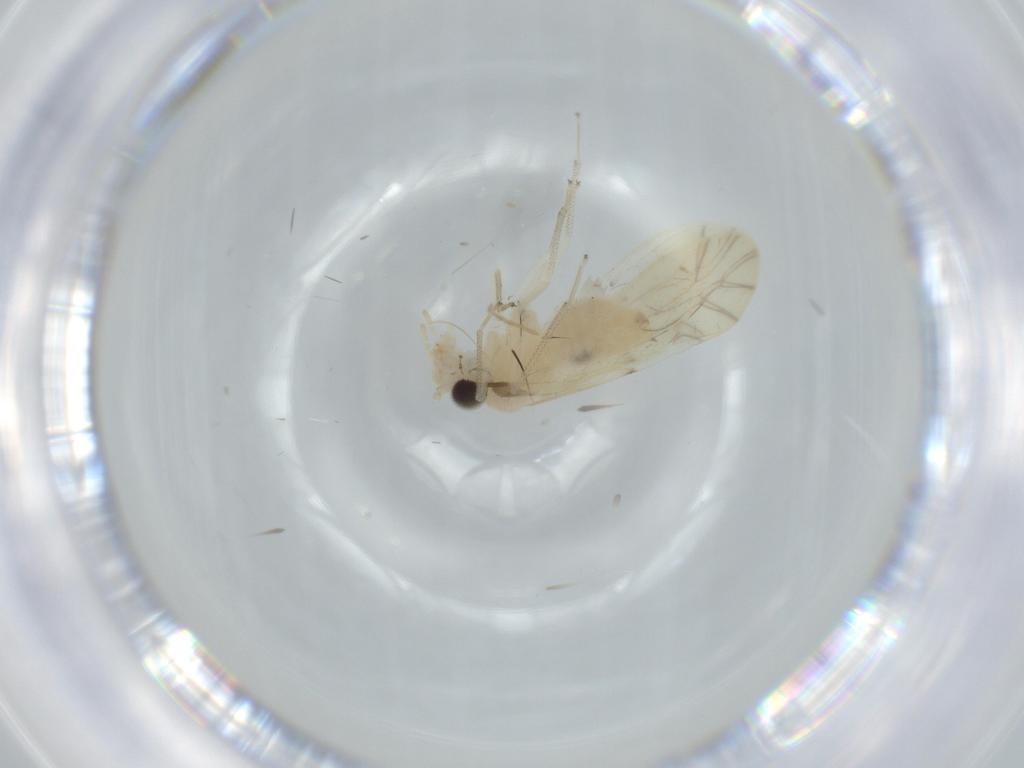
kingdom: Animalia
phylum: Arthropoda
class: Insecta
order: Psocodea
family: Caeciliusidae
